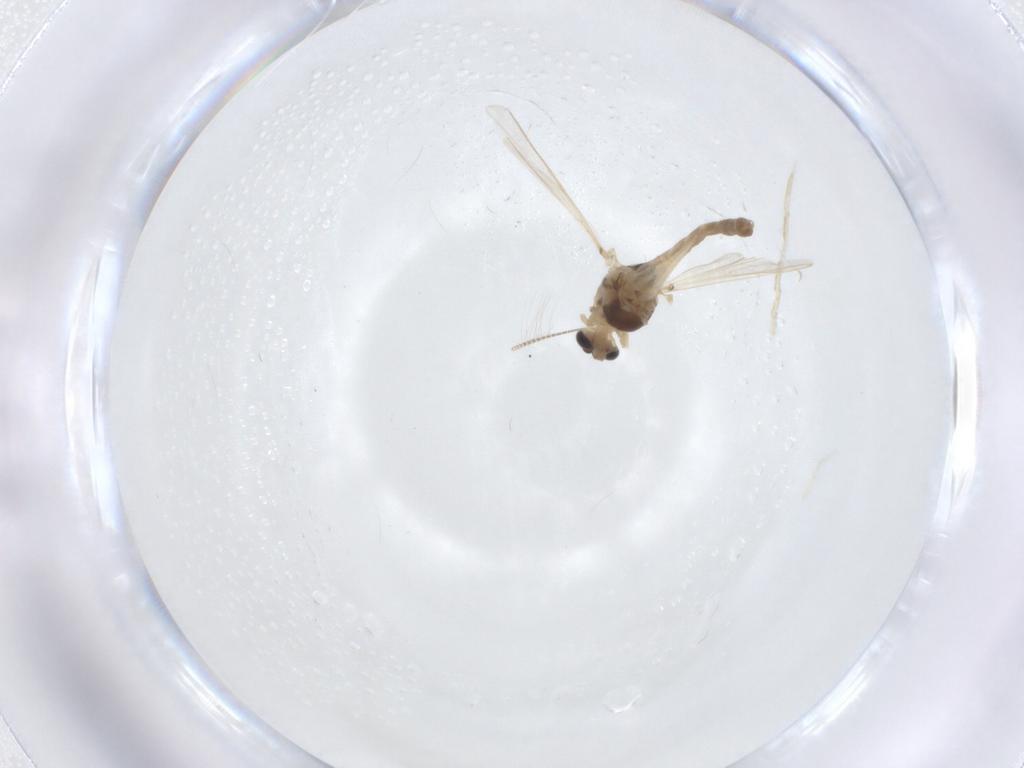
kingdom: Animalia
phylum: Arthropoda
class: Insecta
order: Diptera
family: Chironomidae
